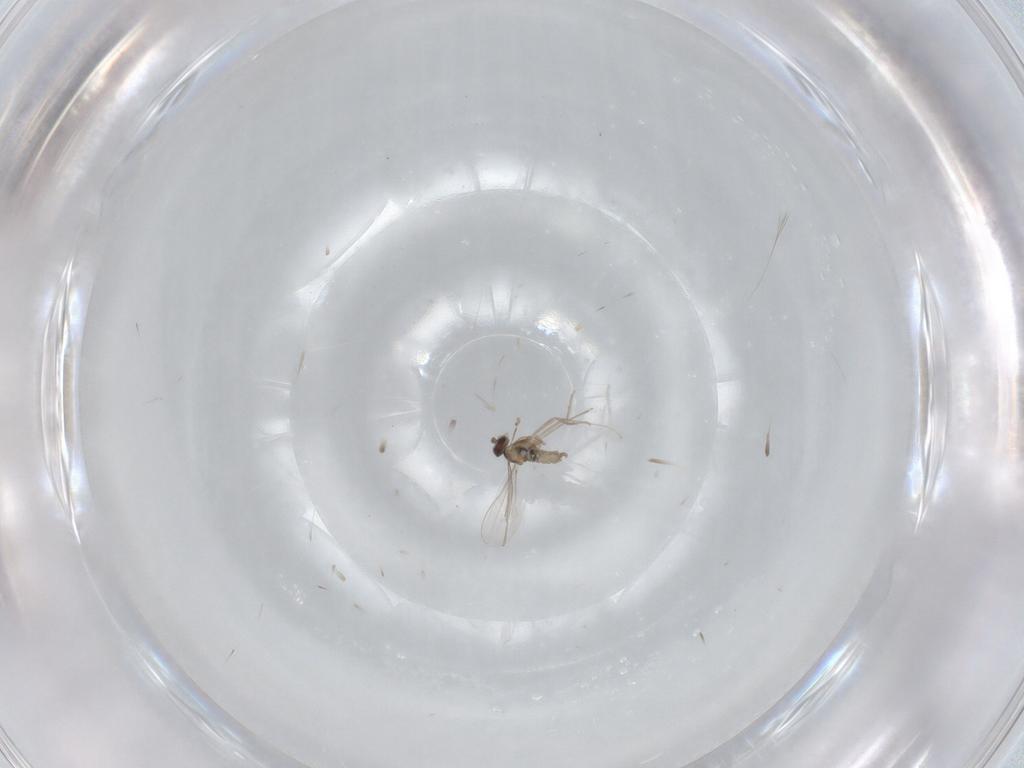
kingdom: Animalia
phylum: Arthropoda
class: Insecta
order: Diptera
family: Cecidomyiidae
